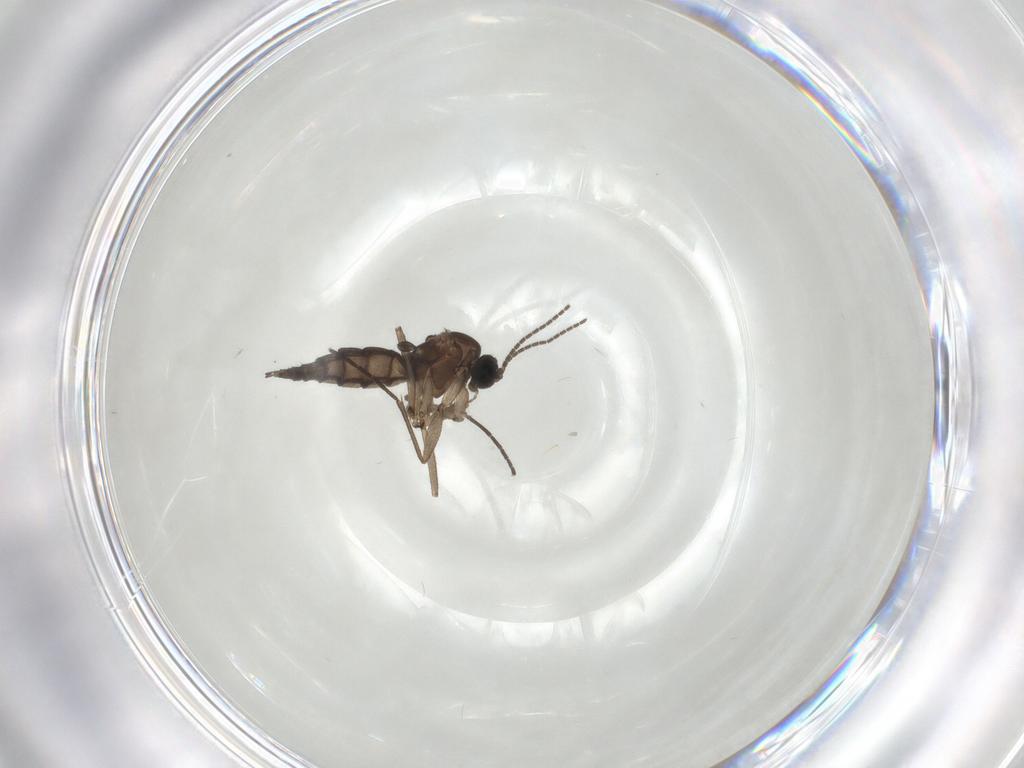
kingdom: Animalia
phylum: Arthropoda
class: Insecta
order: Diptera
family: Sciaridae
